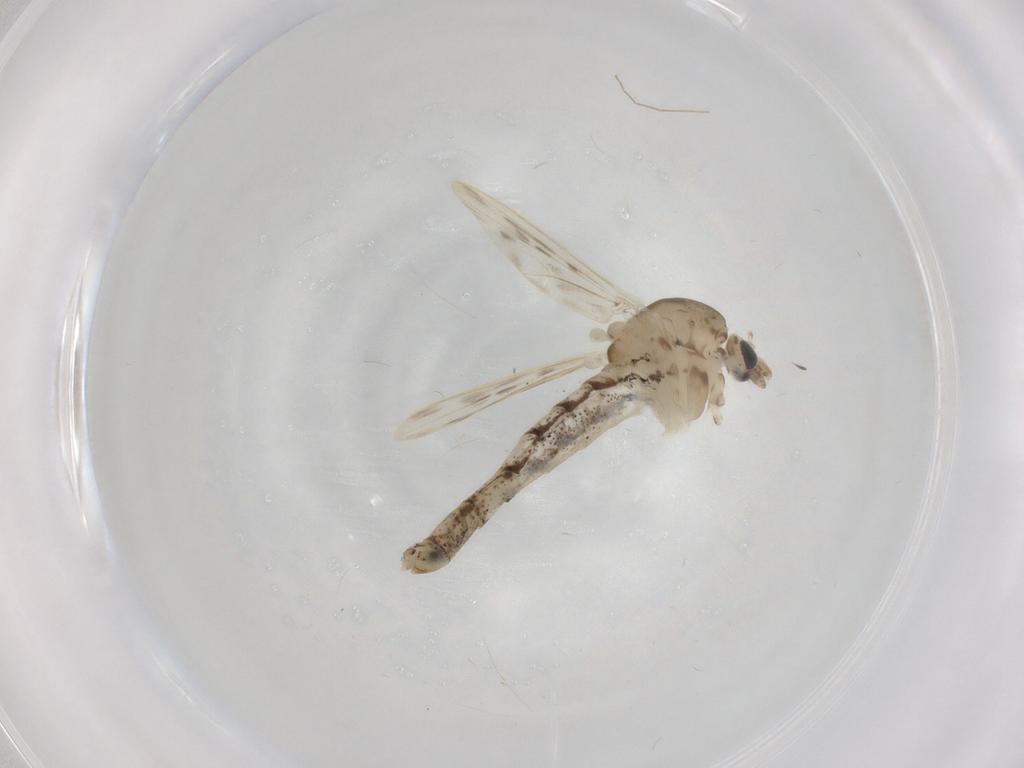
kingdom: Animalia
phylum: Arthropoda
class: Insecta
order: Diptera
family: Chaoboridae
